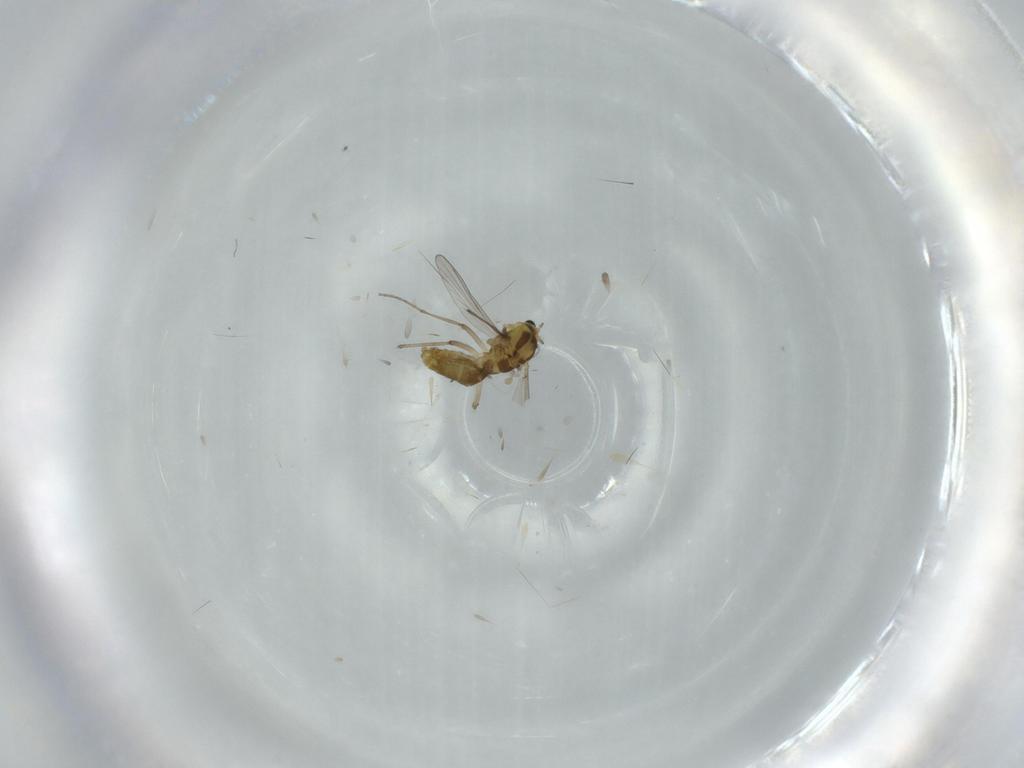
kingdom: Animalia
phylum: Arthropoda
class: Insecta
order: Diptera
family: Chironomidae
